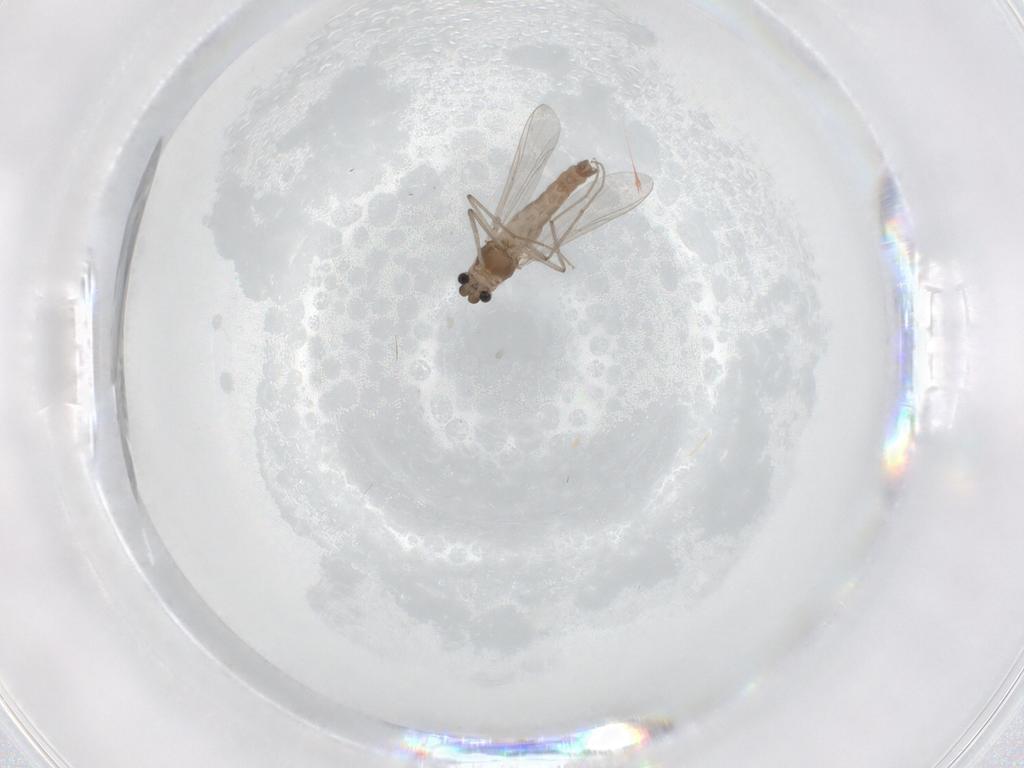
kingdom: Animalia
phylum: Arthropoda
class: Insecta
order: Diptera
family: Chironomidae
